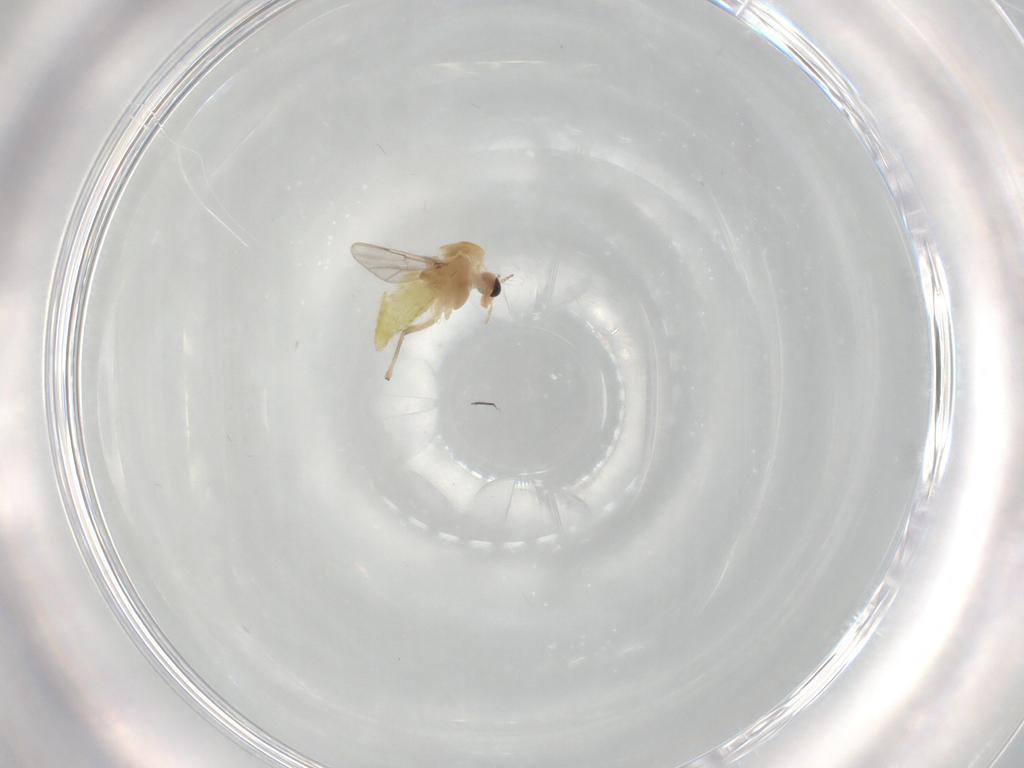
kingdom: Animalia
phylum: Arthropoda
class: Insecta
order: Diptera
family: Chironomidae
